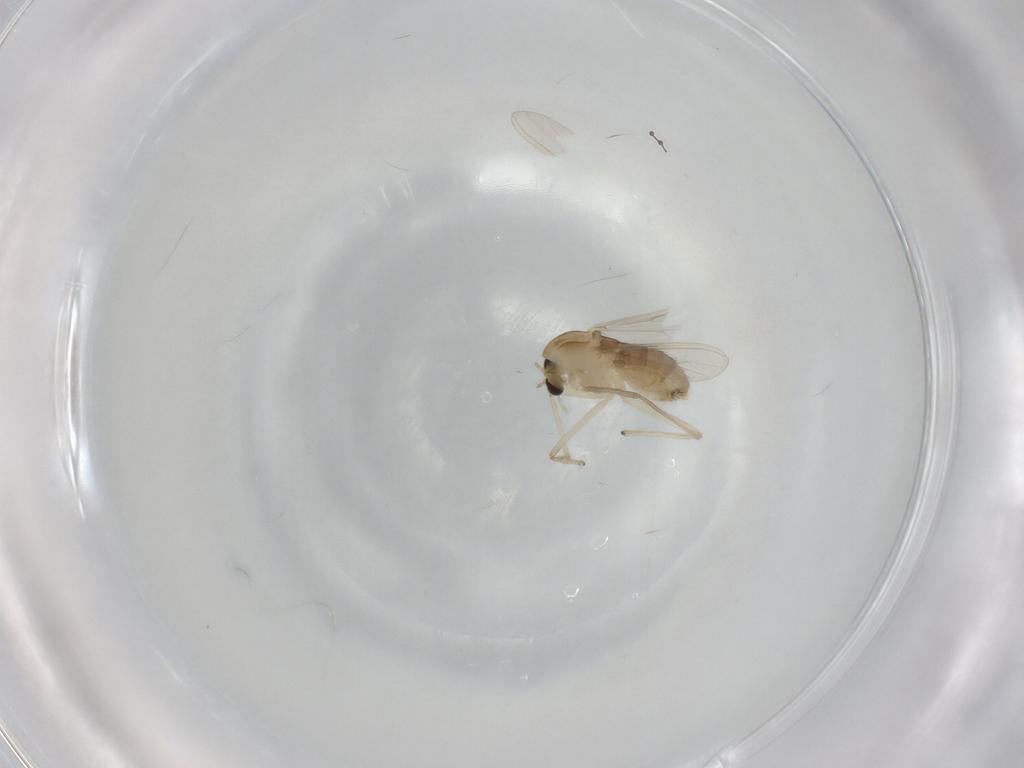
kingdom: Animalia
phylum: Arthropoda
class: Insecta
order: Diptera
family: Chironomidae
